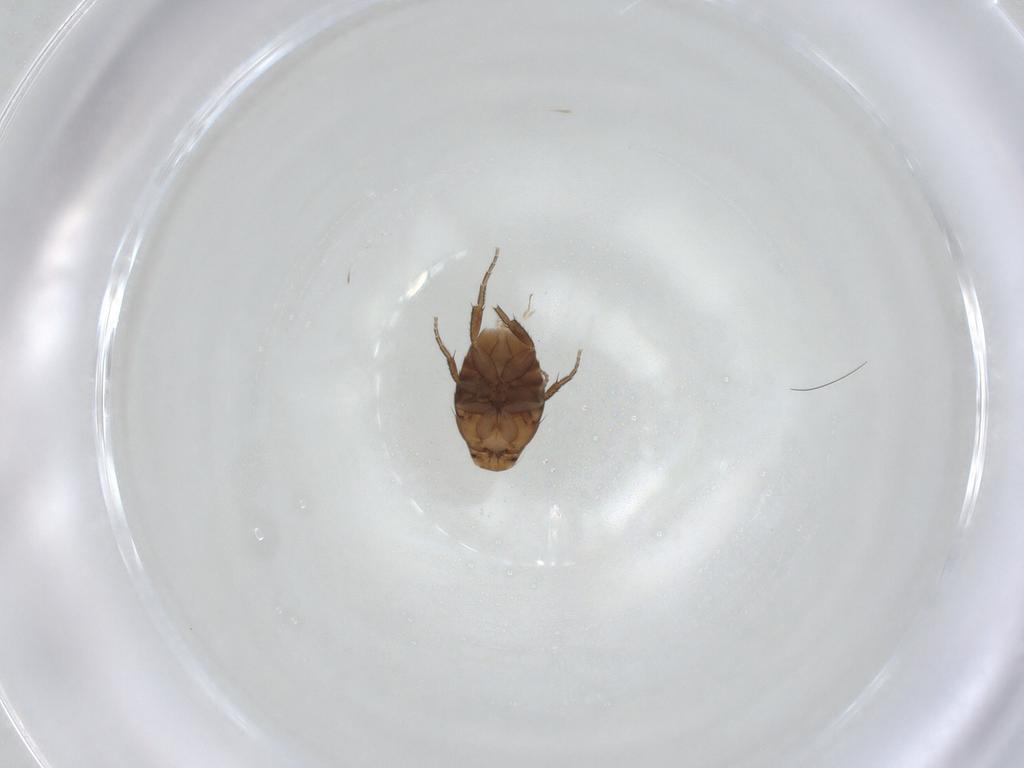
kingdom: Animalia
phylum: Arthropoda
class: Insecta
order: Diptera
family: Phoridae
